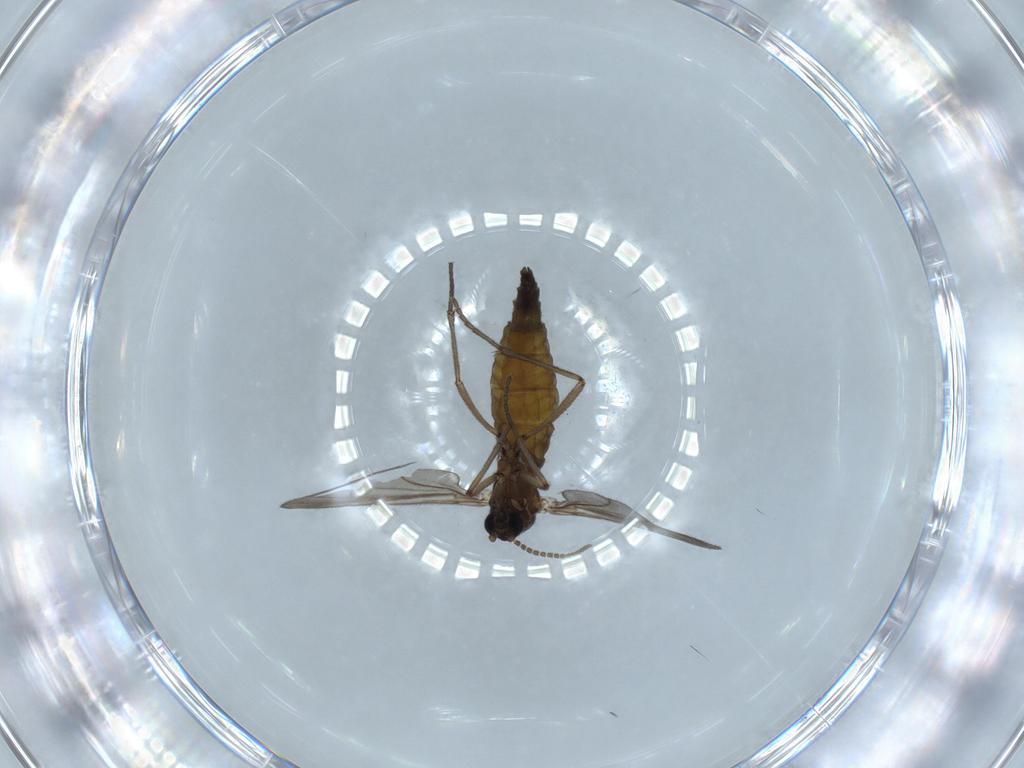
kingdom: Animalia
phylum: Arthropoda
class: Insecta
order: Diptera
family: Sciaridae
